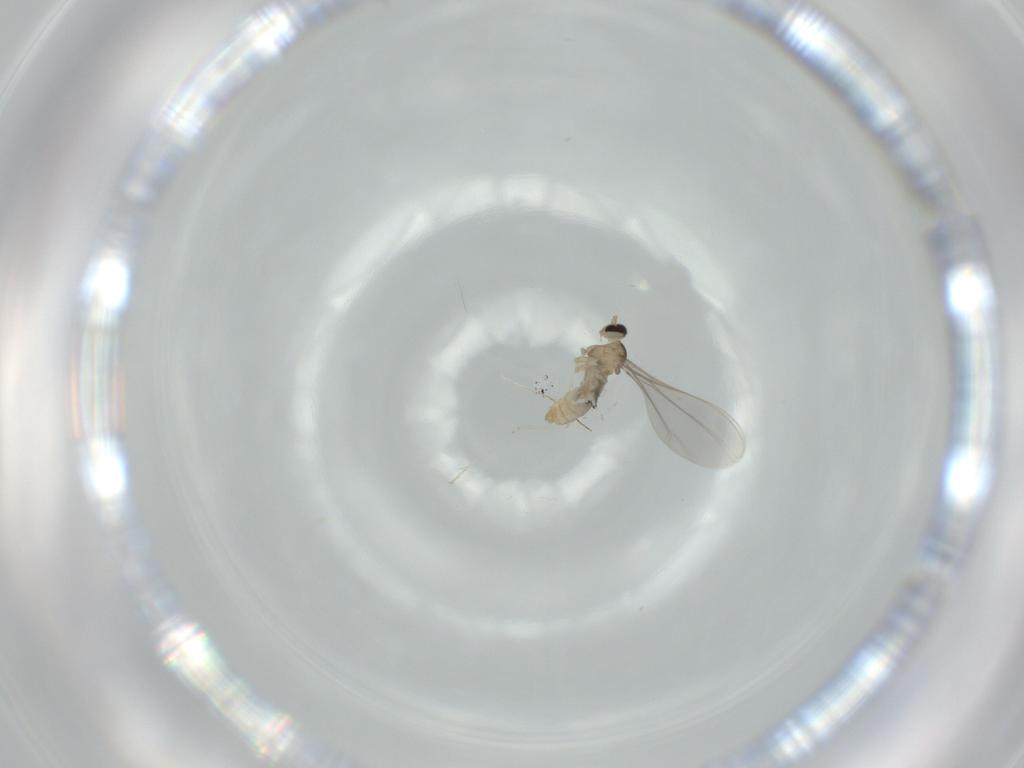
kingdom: Animalia
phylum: Arthropoda
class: Insecta
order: Diptera
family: Cecidomyiidae
